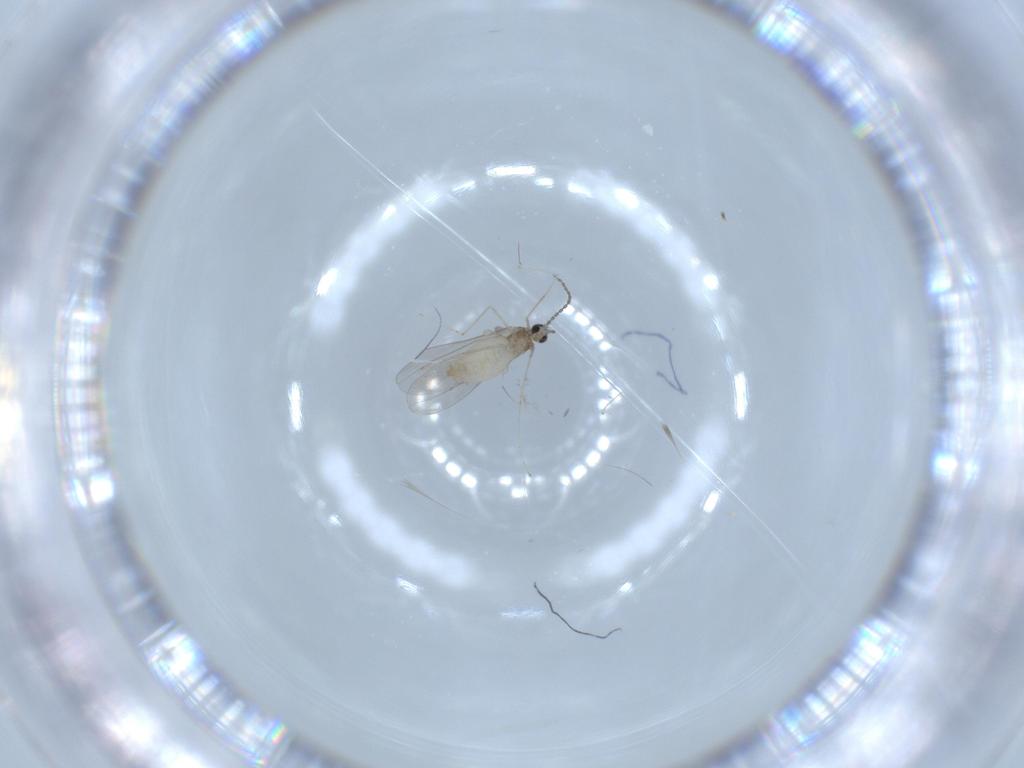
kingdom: Animalia
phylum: Arthropoda
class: Insecta
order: Diptera
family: Cecidomyiidae
